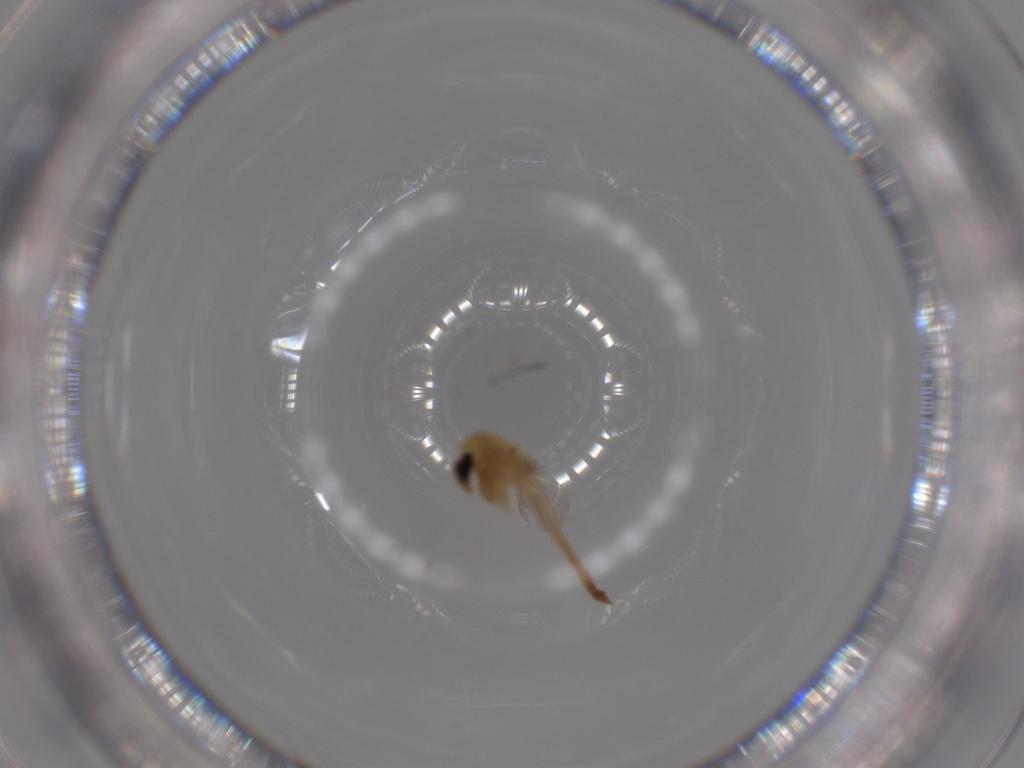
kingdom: Animalia
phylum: Arthropoda
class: Insecta
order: Diptera
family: Chironomidae
